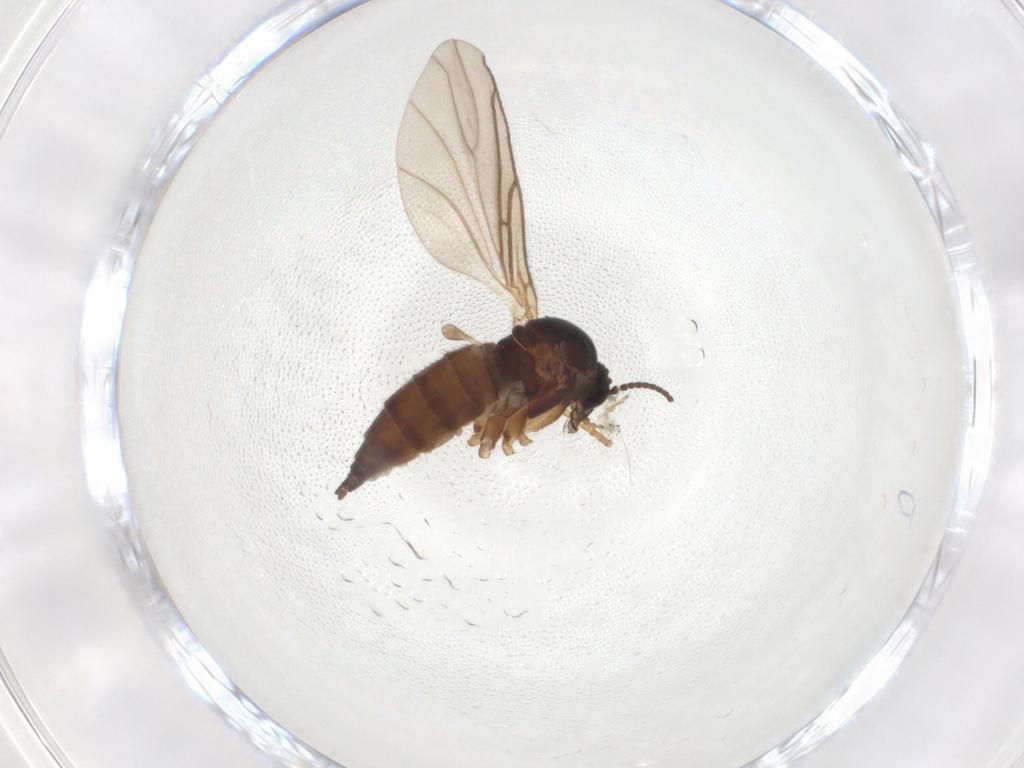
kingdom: Animalia
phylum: Arthropoda
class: Insecta
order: Diptera
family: Sciaridae
